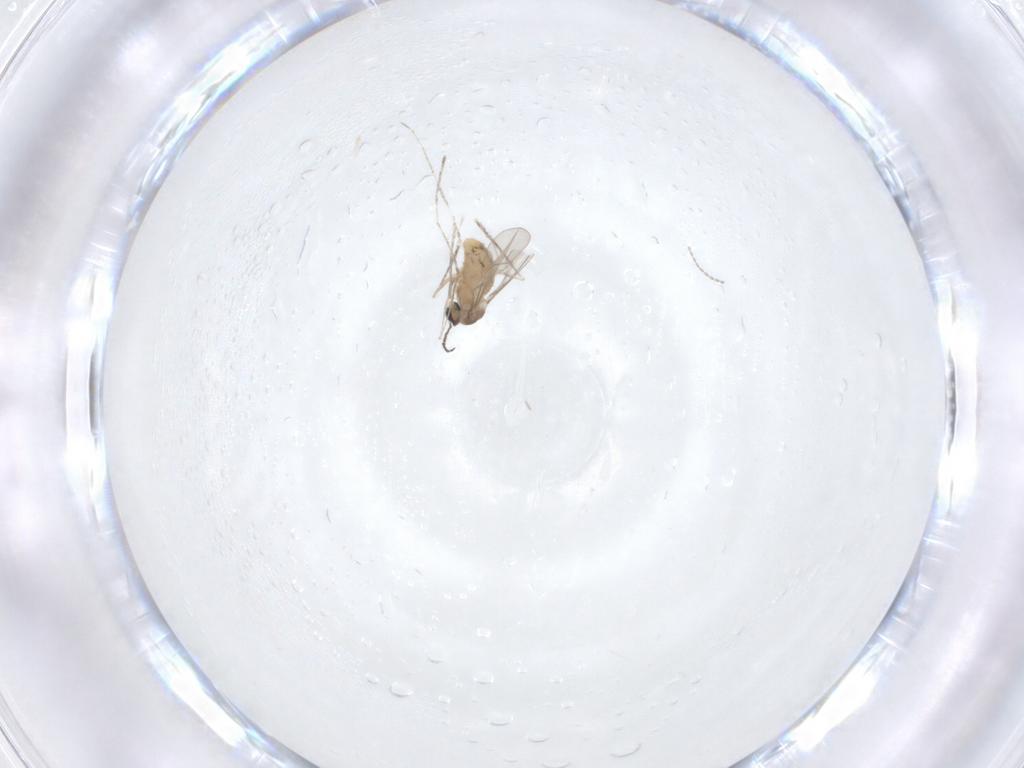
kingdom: Animalia
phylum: Arthropoda
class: Insecta
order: Diptera
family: Cecidomyiidae
